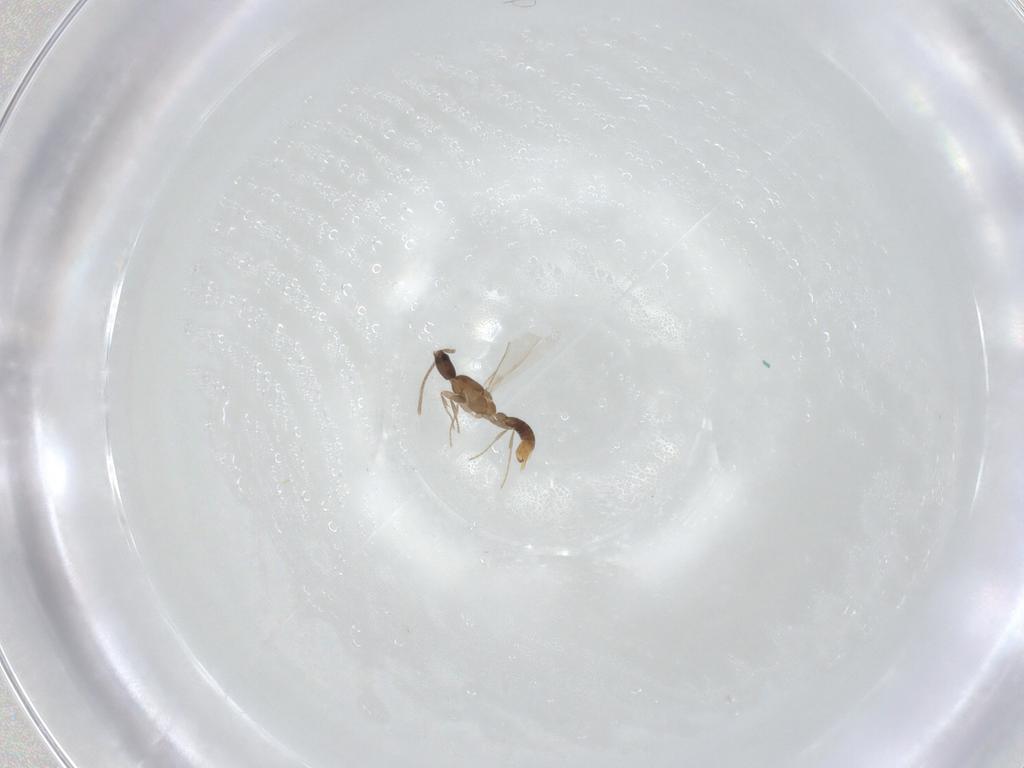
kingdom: Animalia
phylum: Arthropoda
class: Insecta
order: Hymenoptera
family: Formicidae
